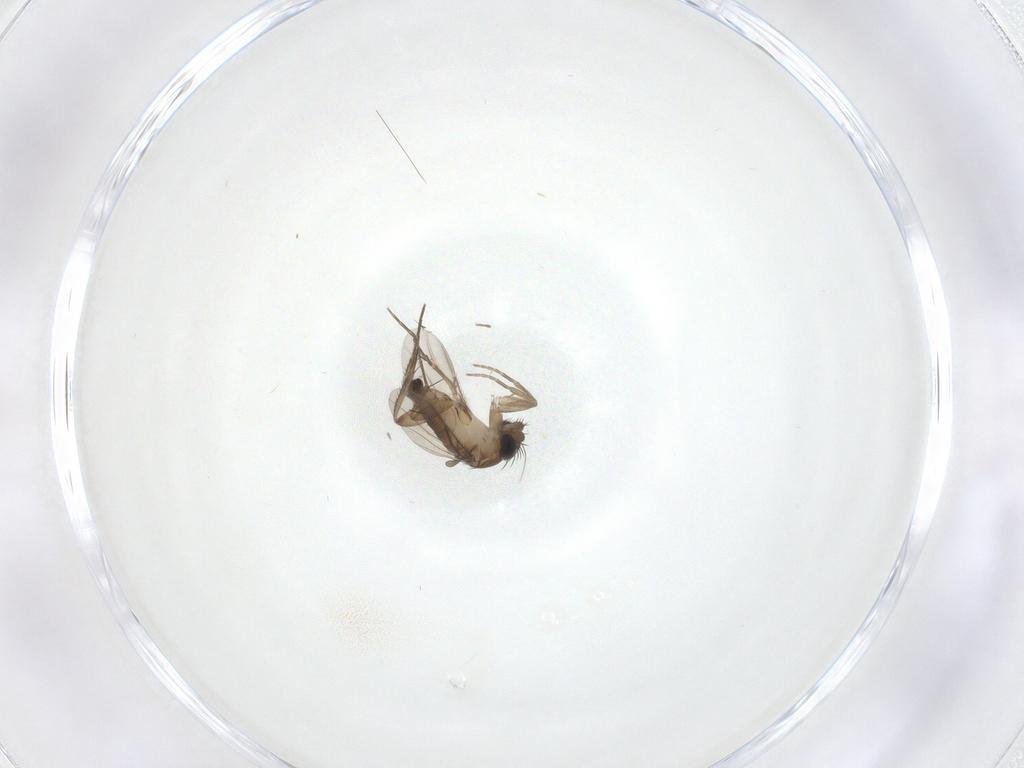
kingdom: Animalia
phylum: Arthropoda
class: Insecta
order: Diptera
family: Phoridae
